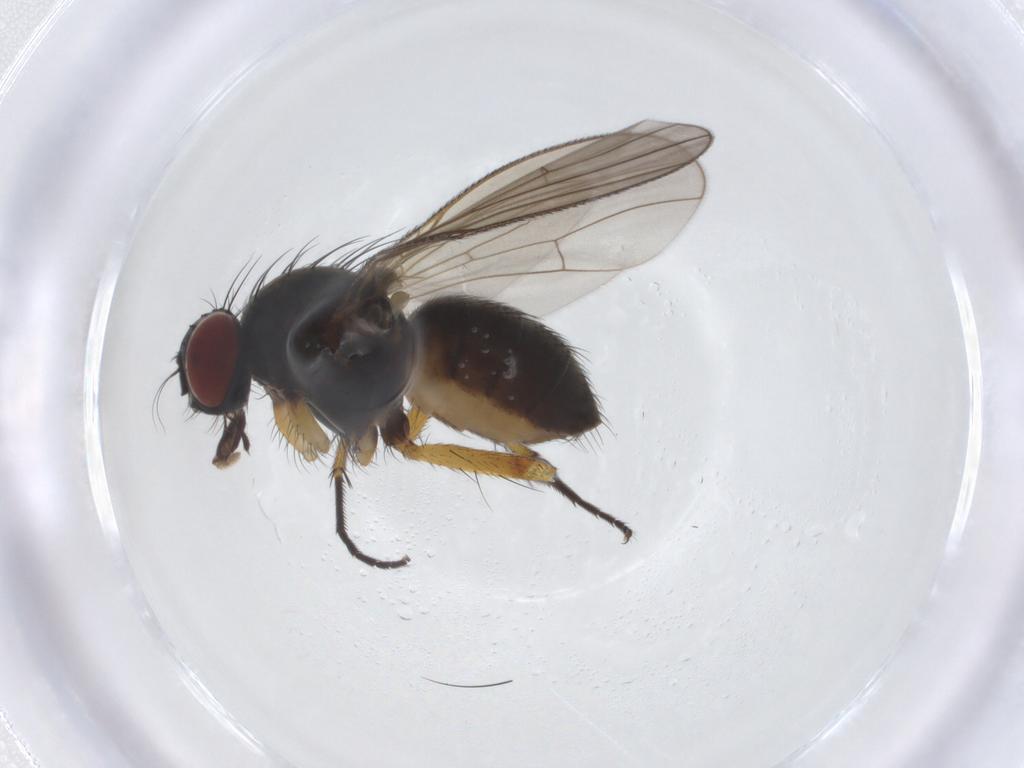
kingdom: Animalia
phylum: Arthropoda
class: Insecta
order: Diptera
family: Muscidae
